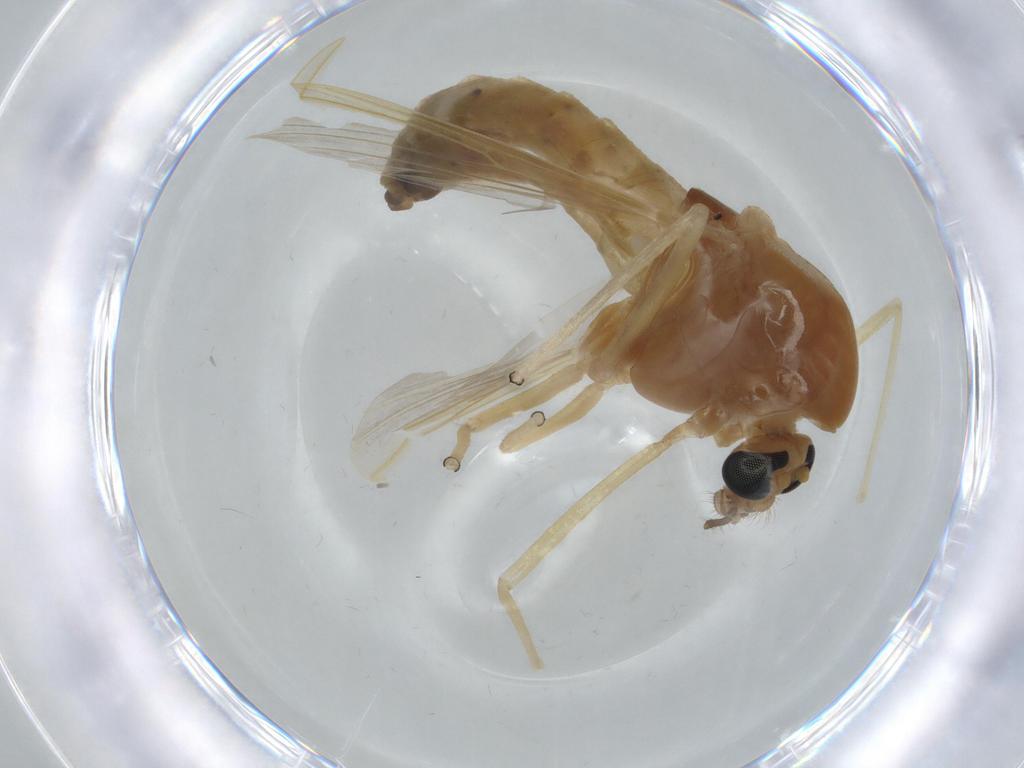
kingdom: Animalia
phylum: Arthropoda
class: Insecta
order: Diptera
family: Chironomidae
